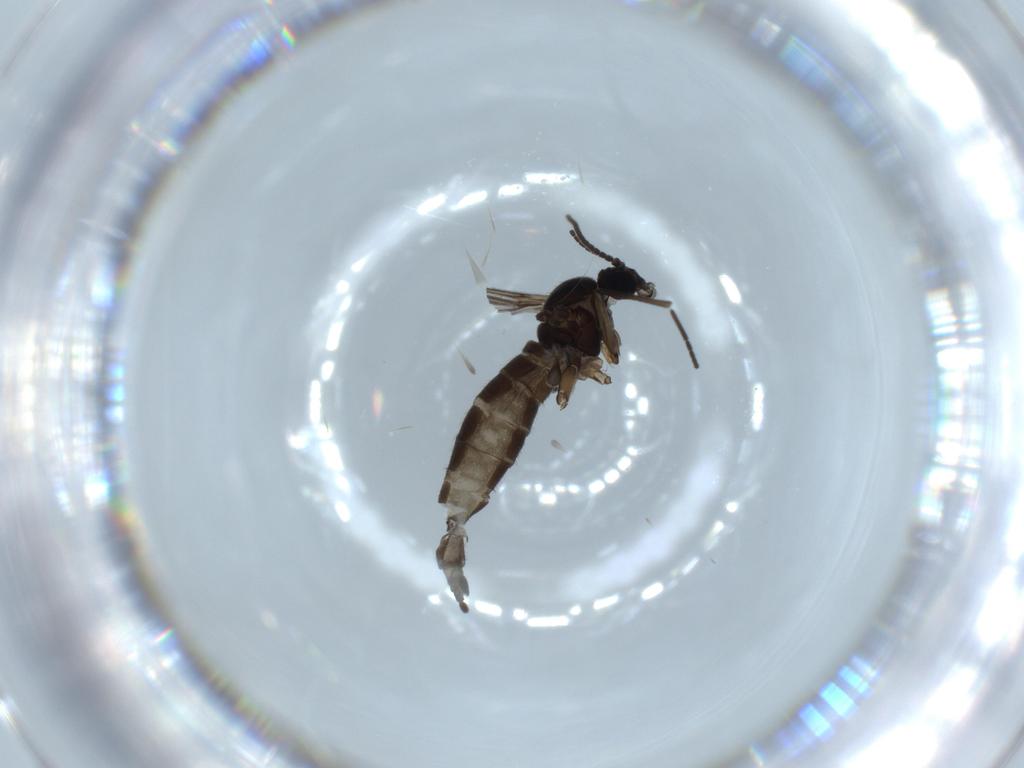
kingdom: Animalia
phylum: Arthropoda
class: Insecta
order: Diptera
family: Sciaridae
